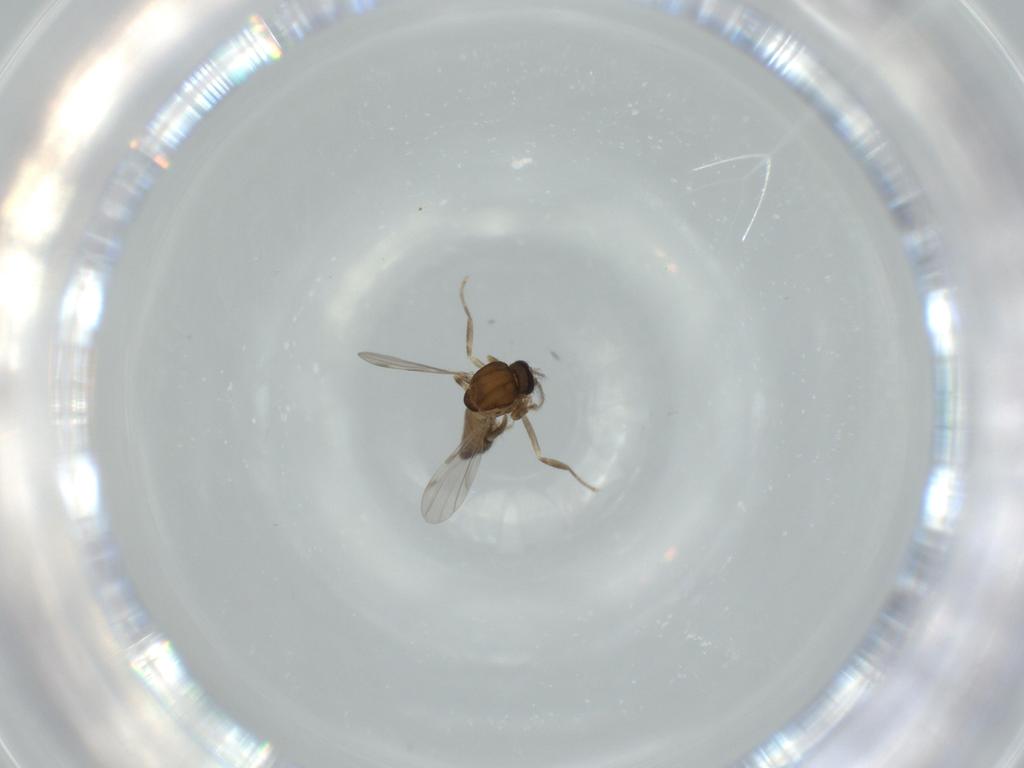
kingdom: Animalia
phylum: Arthropoda
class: Insecta
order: Diptera
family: Ceratopogonidae
